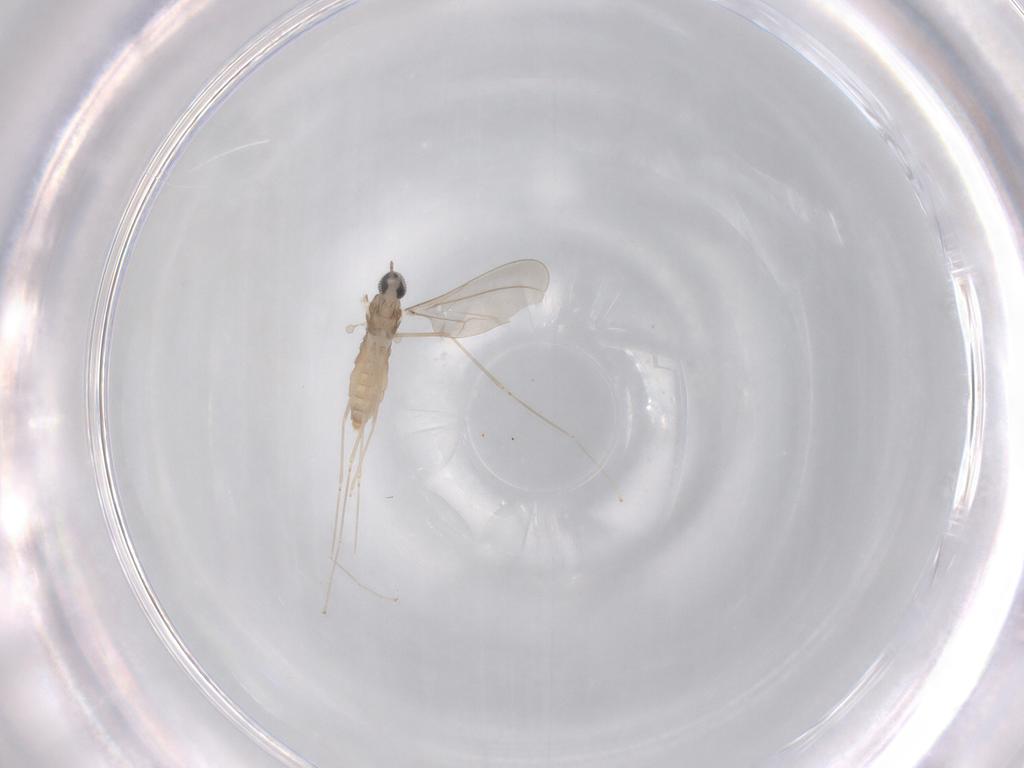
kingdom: Animalia
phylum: Arthropoda
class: Insecta
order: Diptera
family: Cecidomyiidae
